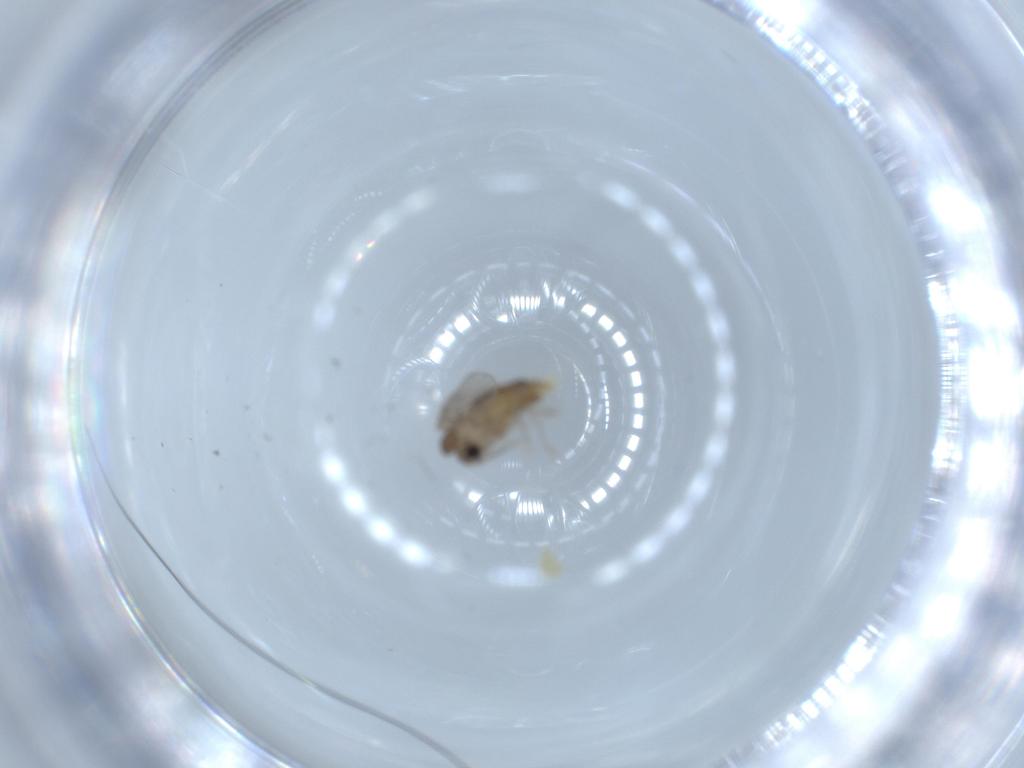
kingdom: Animalia
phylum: Arthropoda
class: Insecta
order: Diptera
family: Psychodidae
